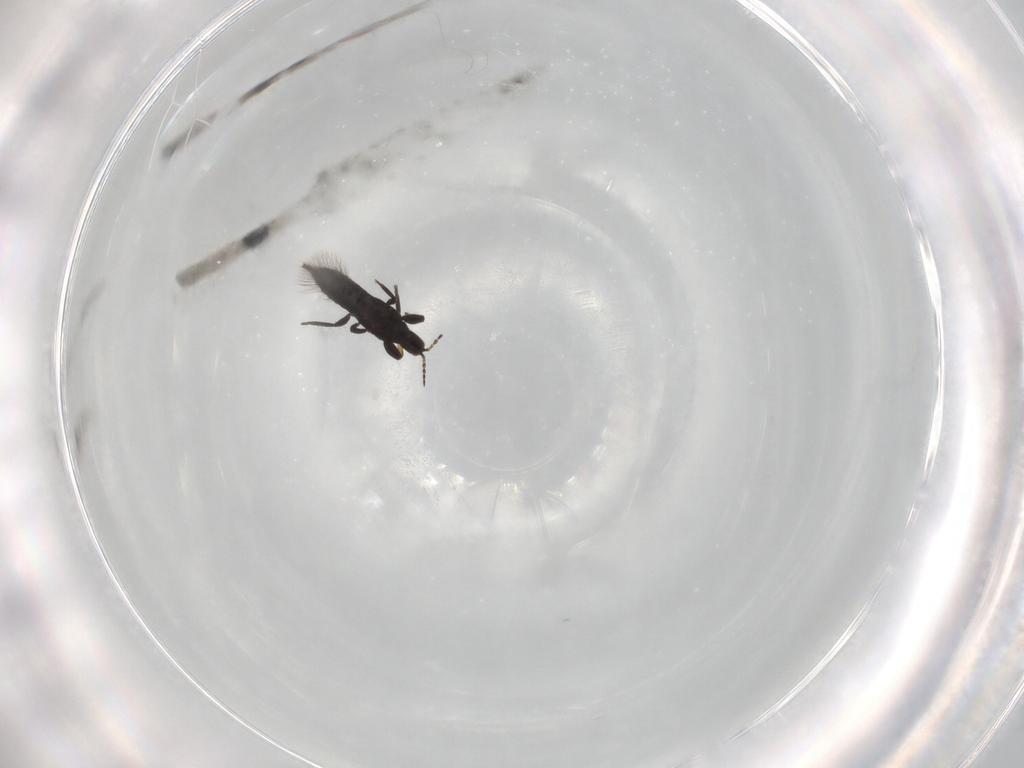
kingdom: Animalia
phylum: Arthropoda
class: Insecta
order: Thysanoptera
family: Phlaeothripidae
